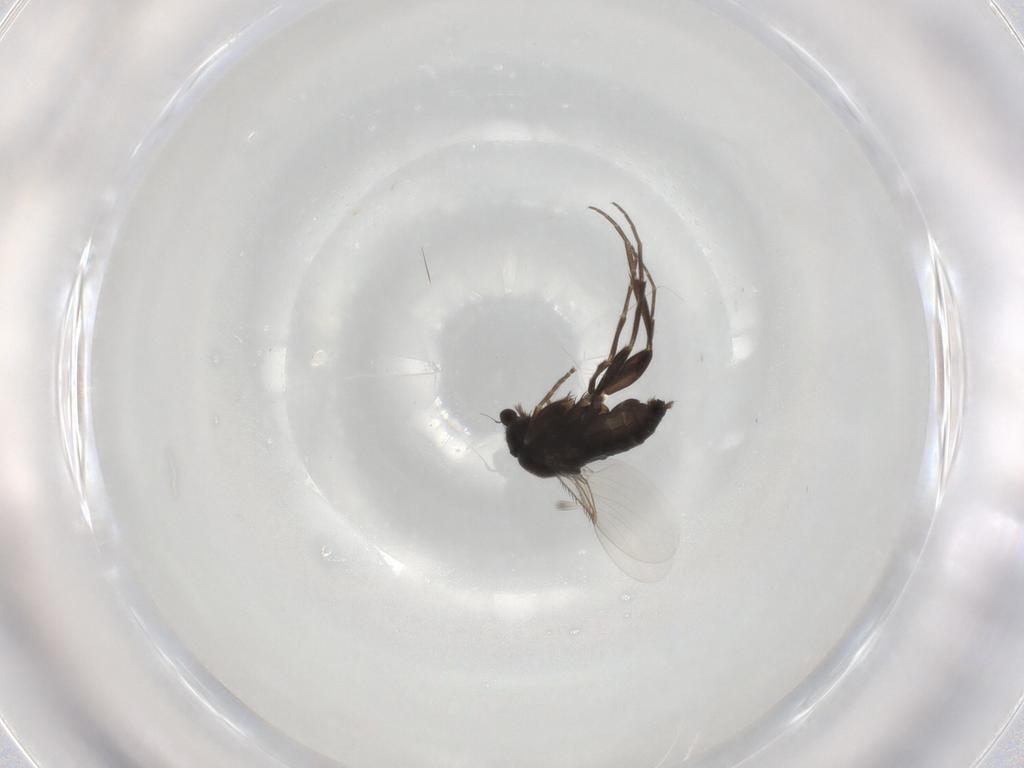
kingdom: Animalia
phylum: Arthropoda
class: Insecta
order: Diptera
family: Phoridae
